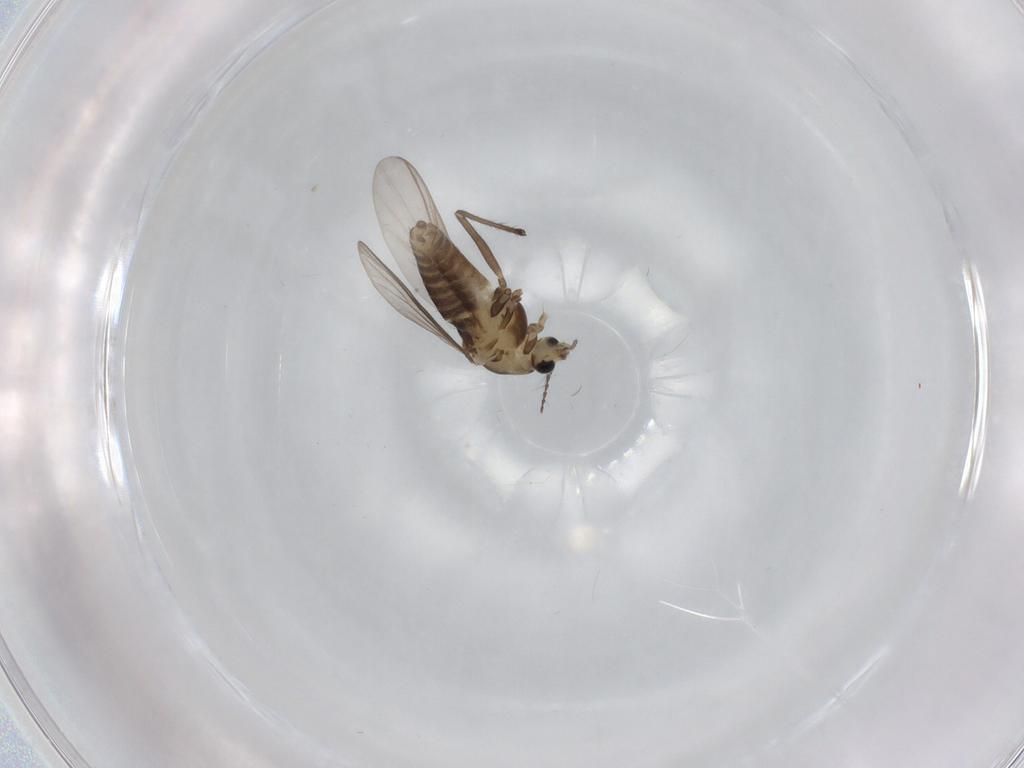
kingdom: Animalia
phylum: Arthropoda
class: Insecta
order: Diptera
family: Chironomidae
